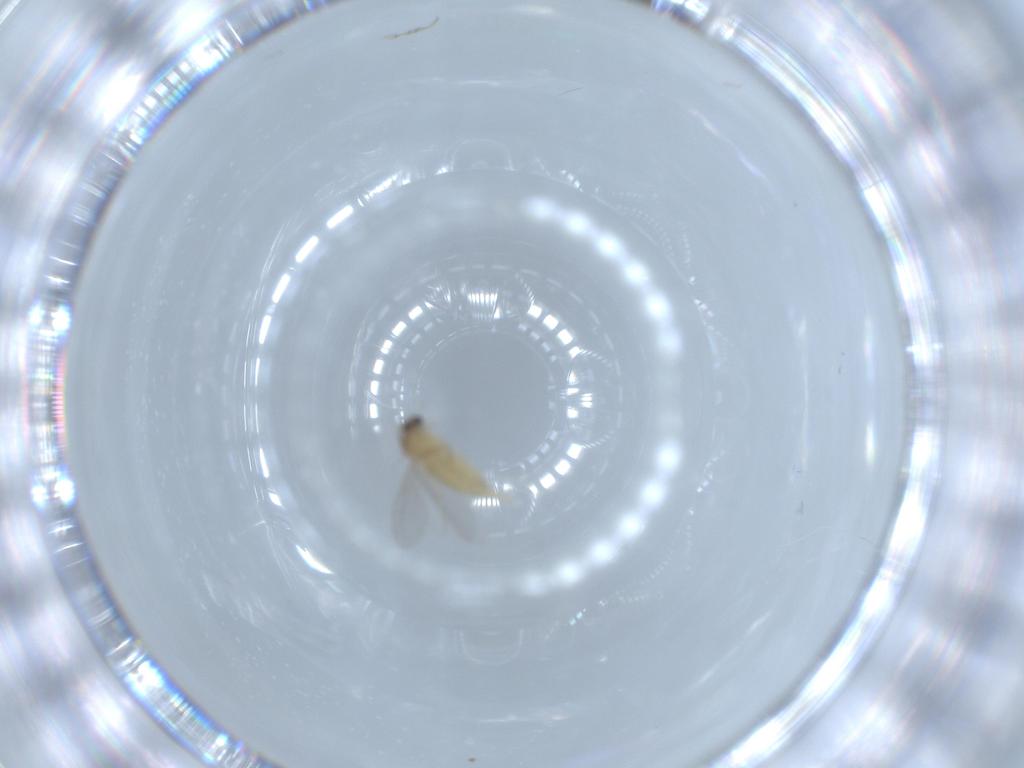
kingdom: Animalia
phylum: Arthropoda
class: Insecta
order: Diptera
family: Cecidomyiidae
